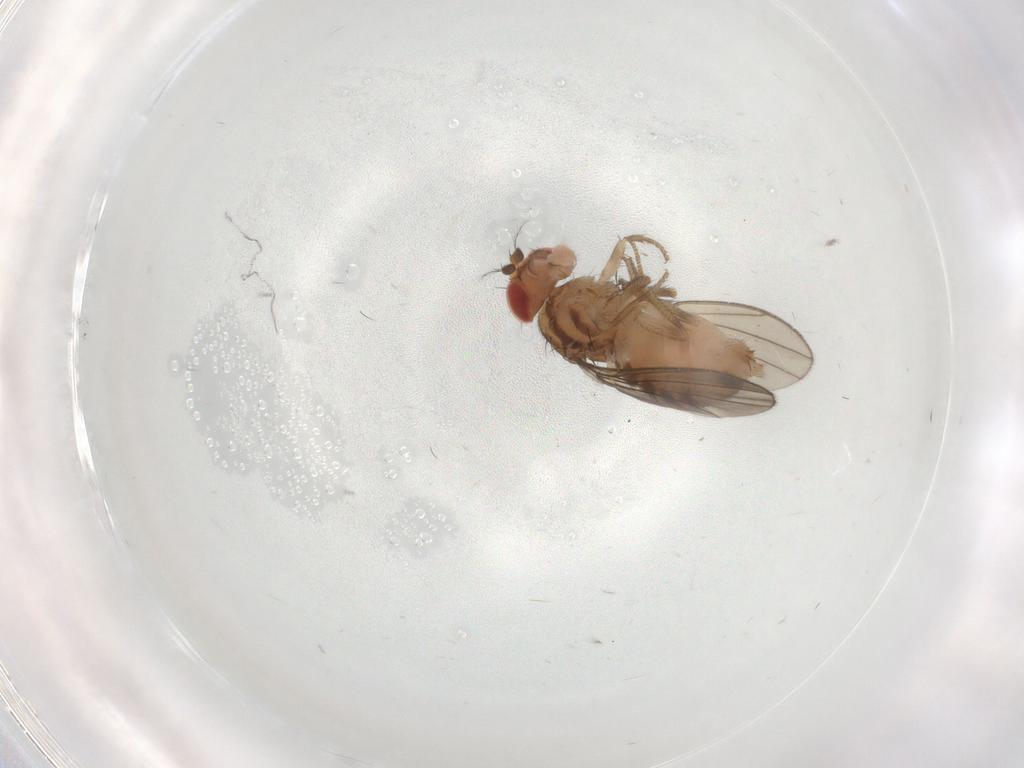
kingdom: Animalia
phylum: Arthropoda
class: Insecta
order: Diptera
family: Drosophilidae
